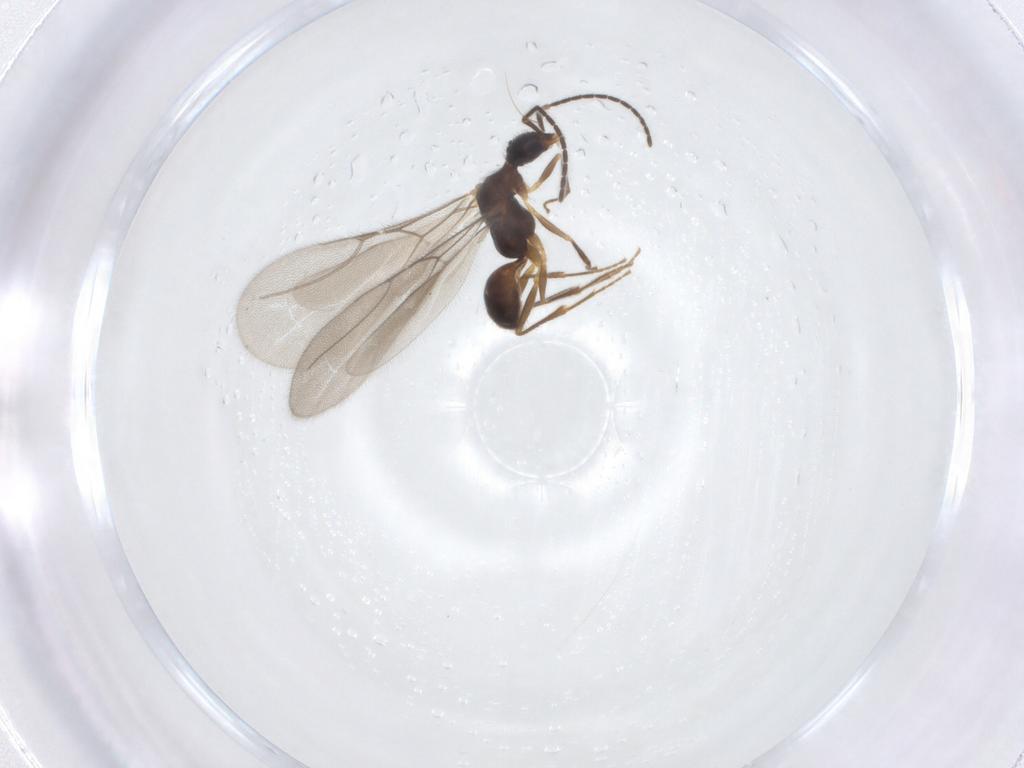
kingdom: Animalia
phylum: Arthropoda
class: Insecta
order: Hymenoptera
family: Bethylidae
